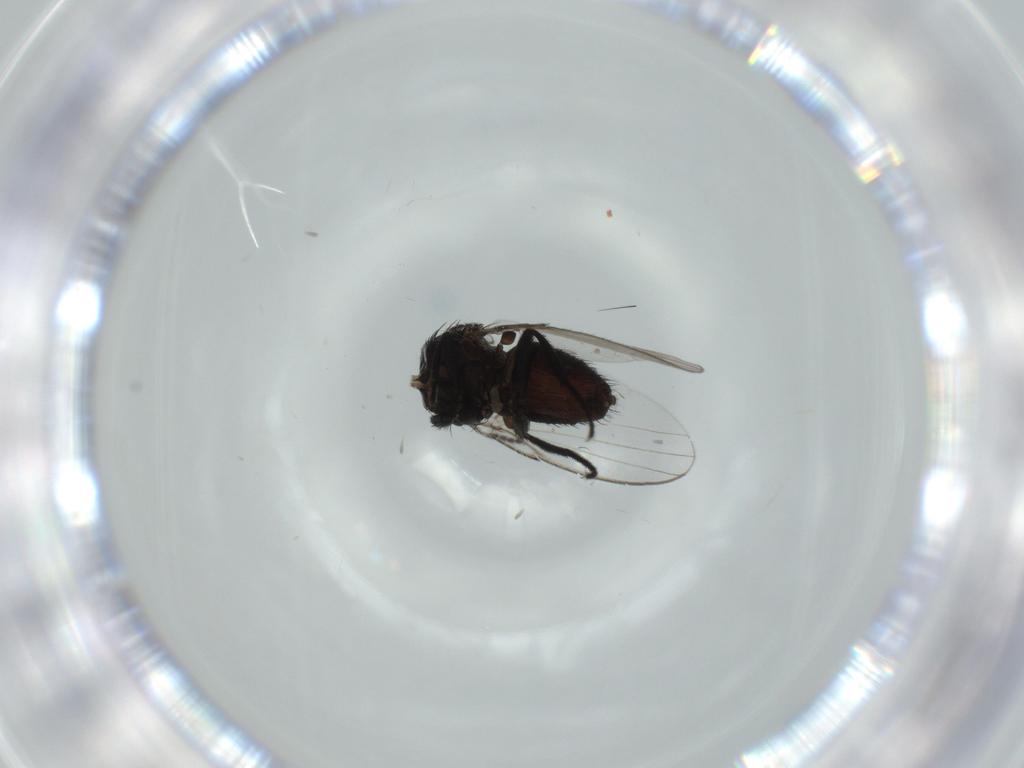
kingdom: Animalia
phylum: Arthropoda
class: Insecta
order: Diptera
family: Milichiidae
